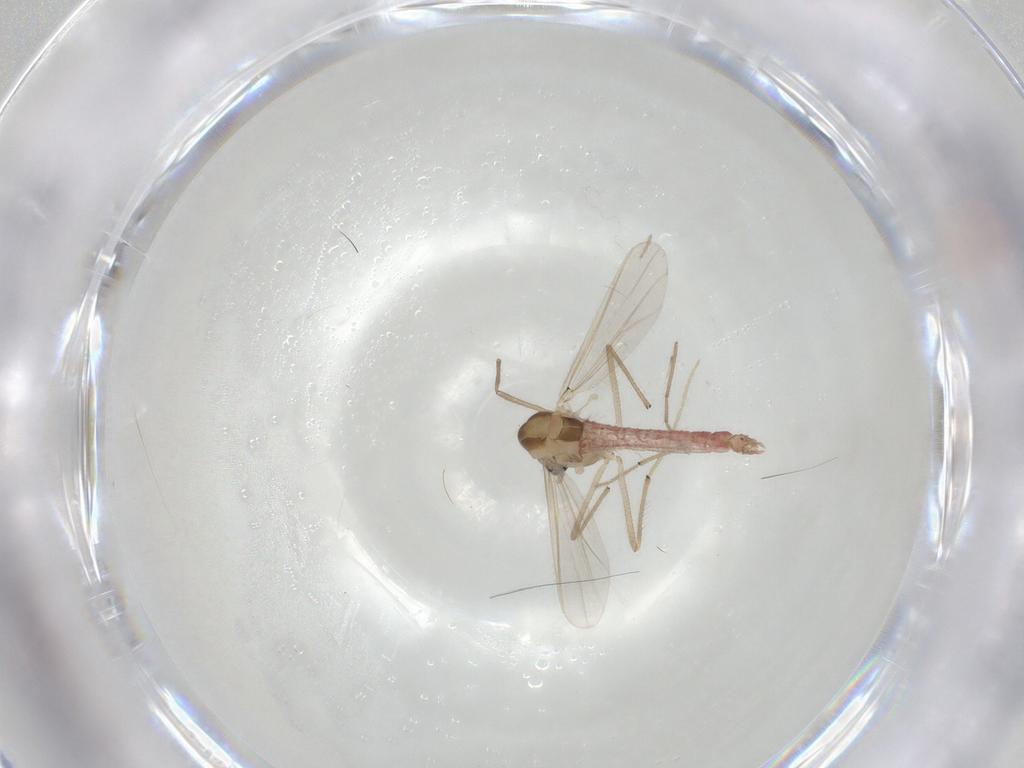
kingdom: Animalia
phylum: Arthropoda
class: Insecta
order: Diptera
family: Chironomidae
